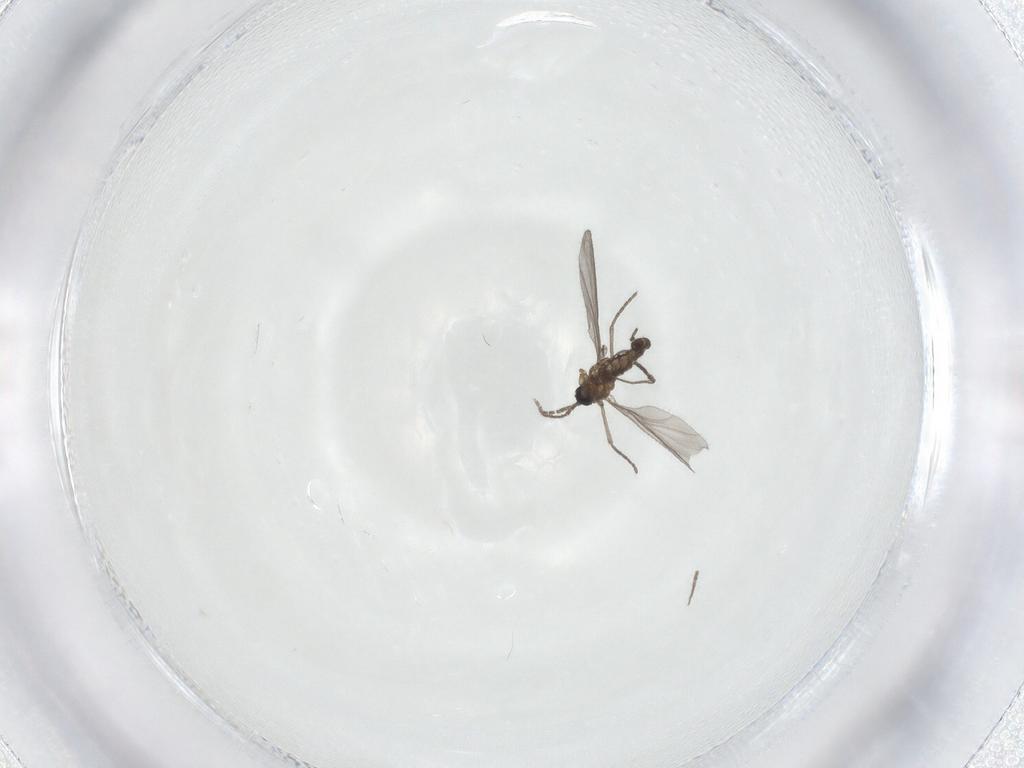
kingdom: Animalia
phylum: Arthropoda
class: Insecta
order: Diptera
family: Sciaridae
